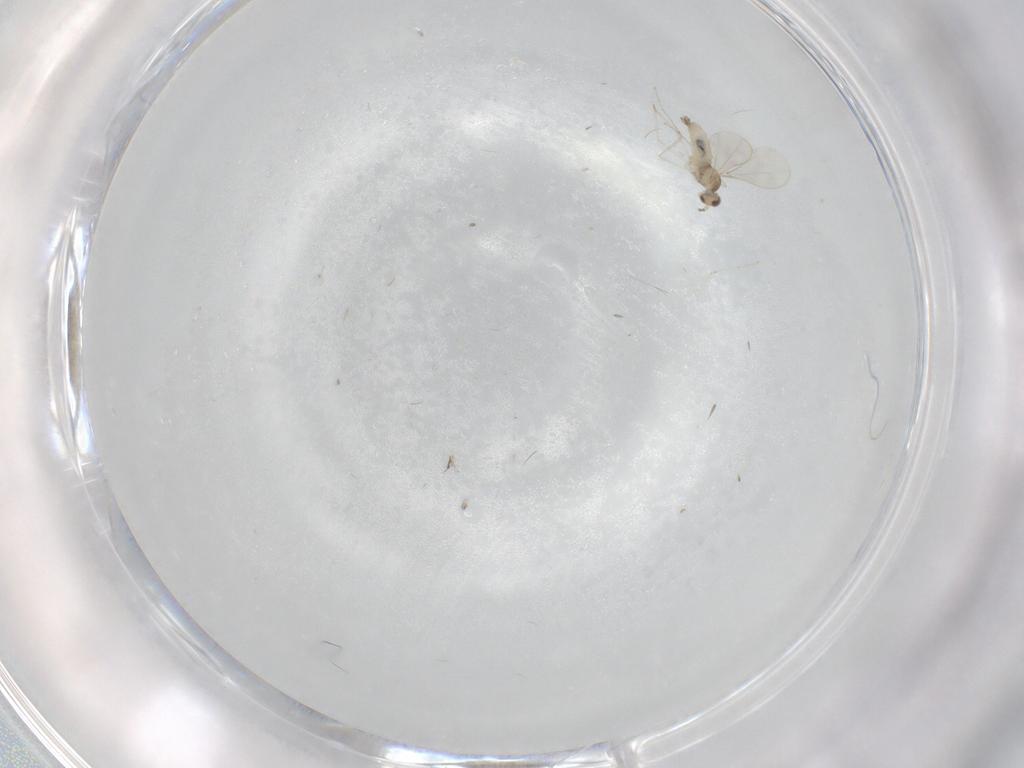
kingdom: Animalia
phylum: Arthropoda
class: Insecta
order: Diptera
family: Cecidomyiidae
